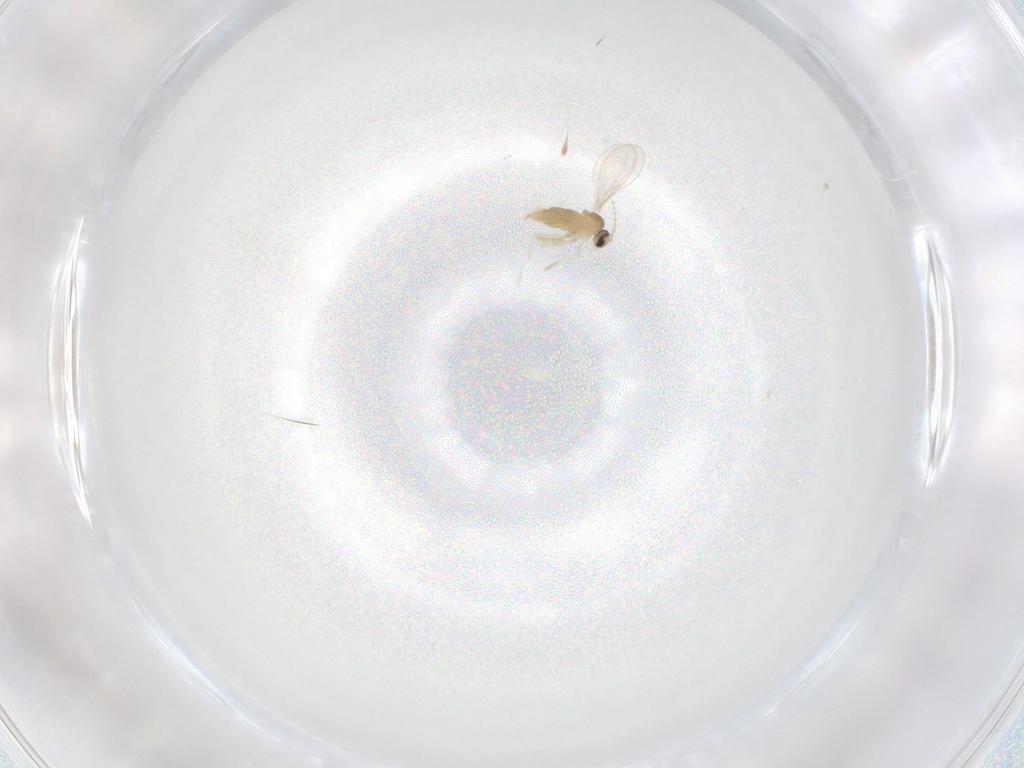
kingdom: Animalia
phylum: Arthropoda
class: Insecta
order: Diptera
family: Cecidomyiidae
